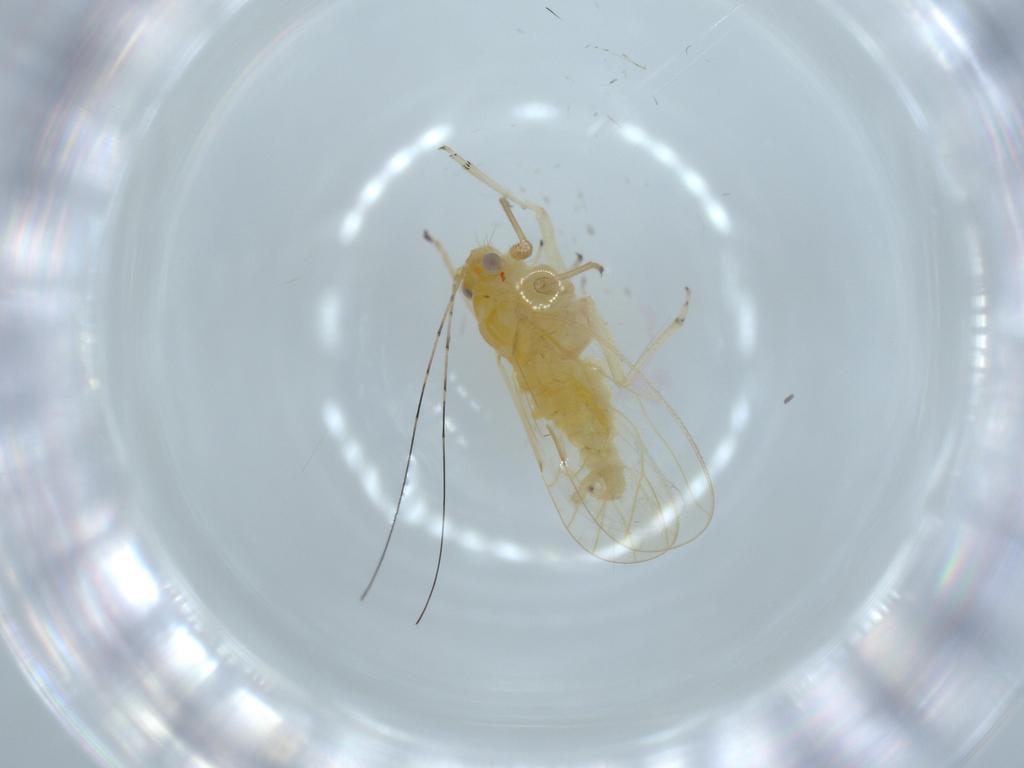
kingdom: Animalia
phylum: Arthropoda
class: Insecta
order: Hemiptera
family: Psyllidae
